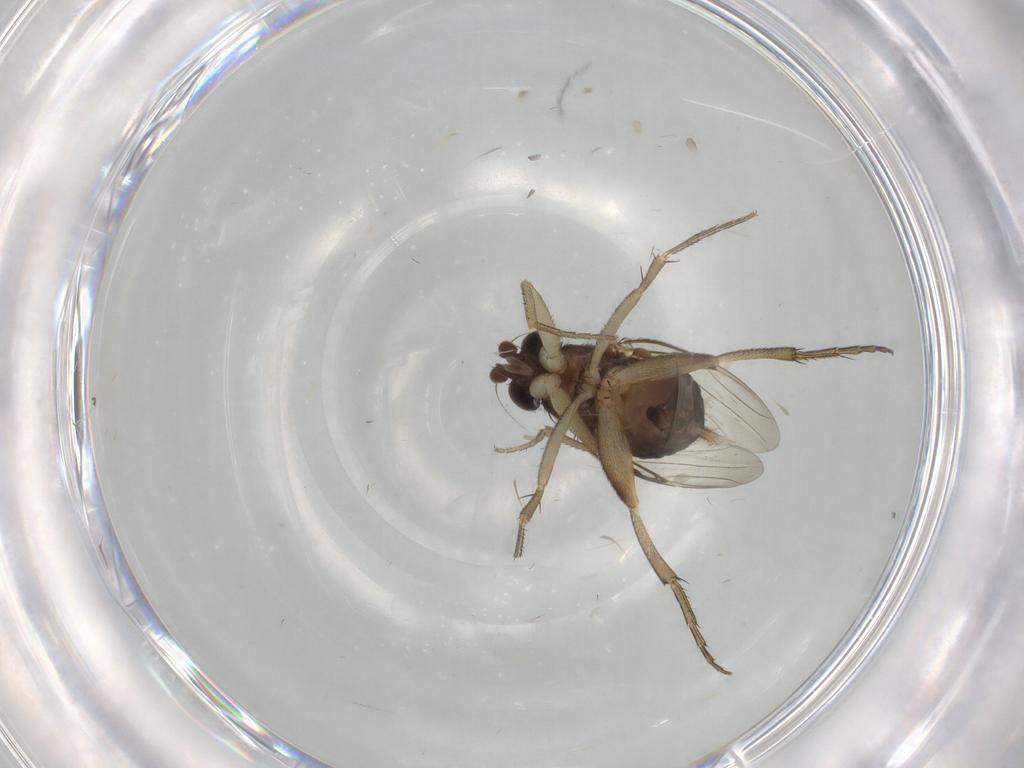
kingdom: Animalia
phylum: Arthropoda
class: Insecta
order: Diptera
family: Phoridae
